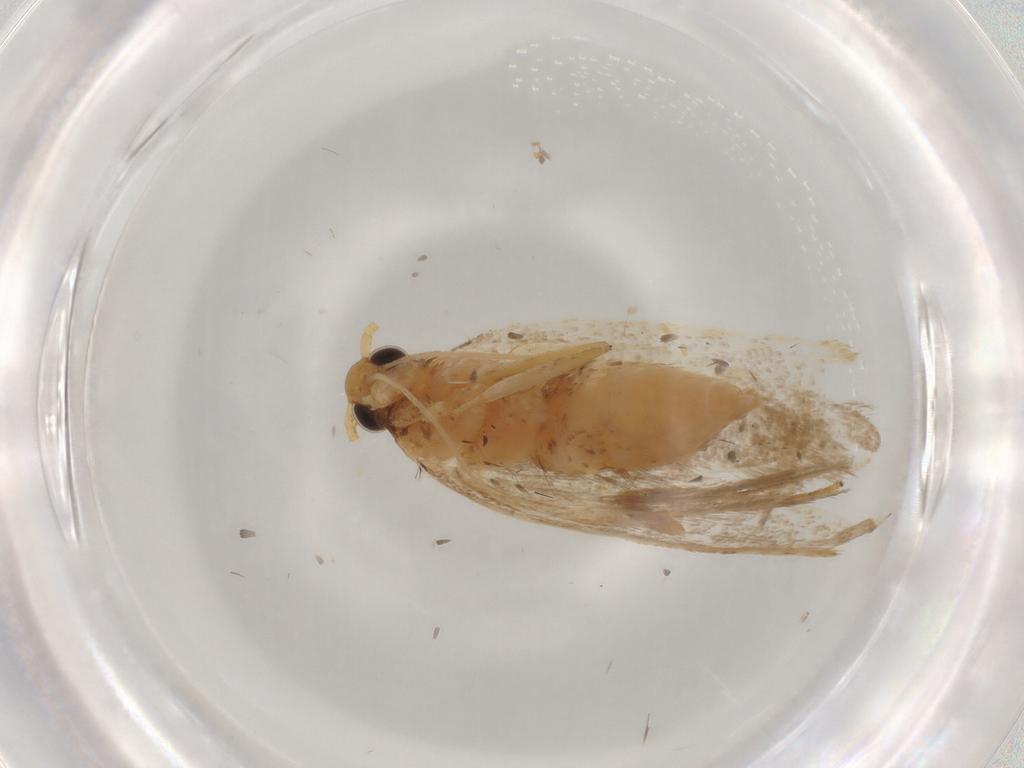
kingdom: Animalia
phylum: Arthropoda
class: Insecta
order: Lepidoptera
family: Lecithoceridae
